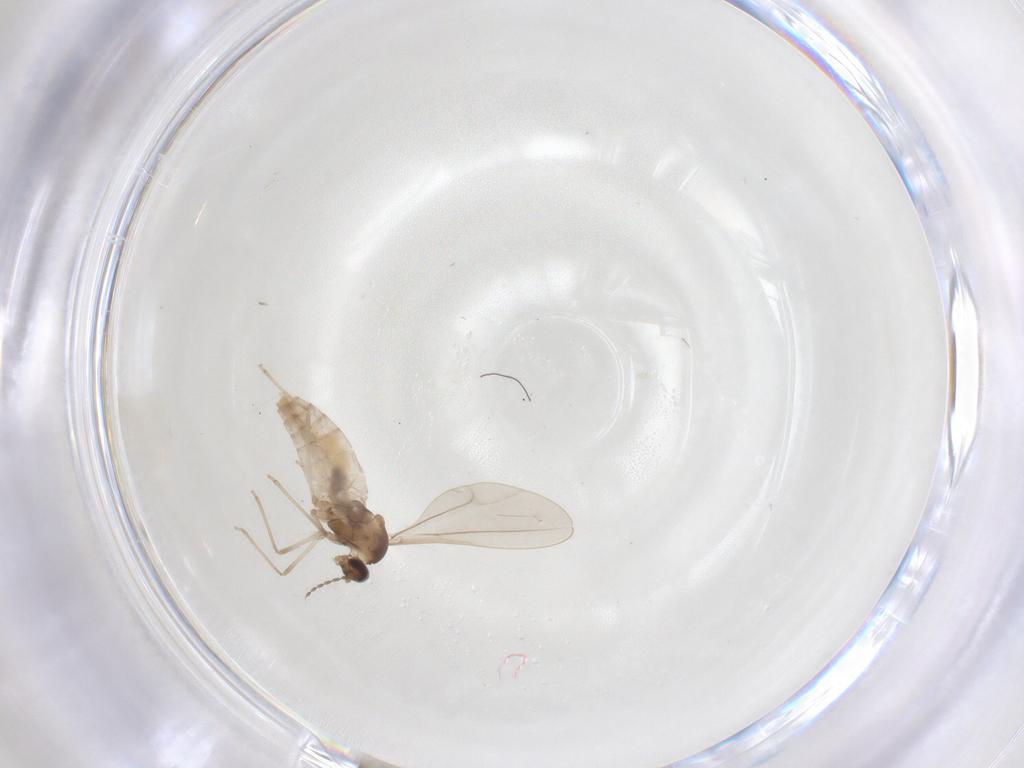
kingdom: Animalia
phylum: Arthropoda
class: Insecta
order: Diptera
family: Cecidomyiidae
